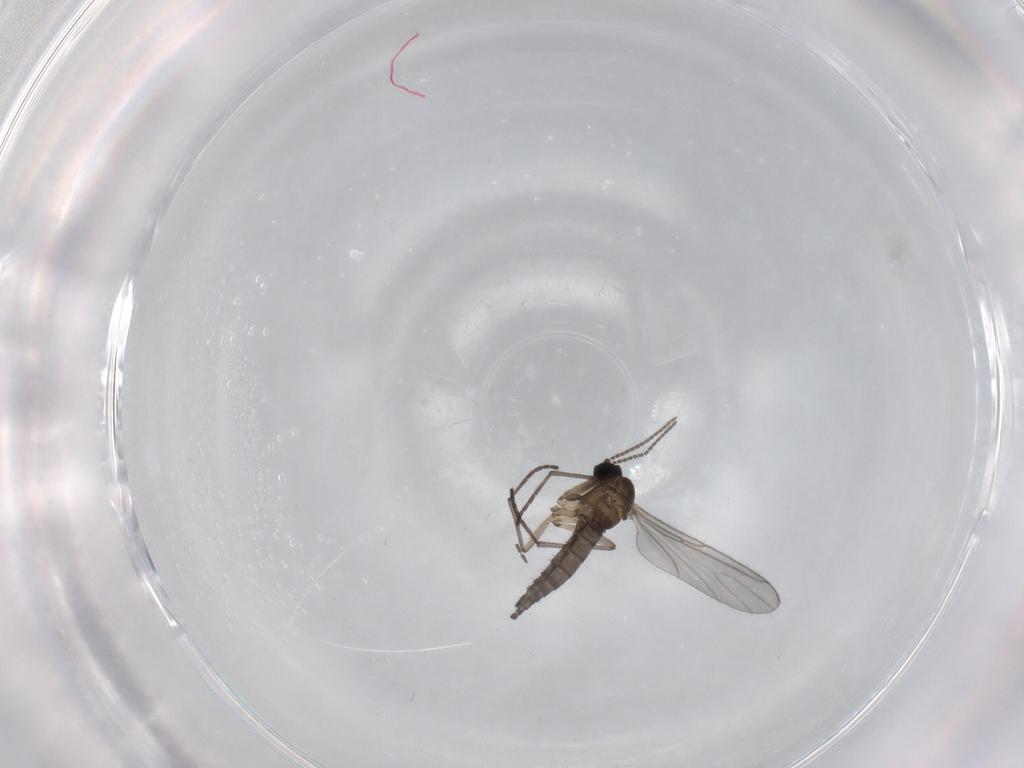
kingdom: Animalia
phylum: Arthropoda
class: Insecta
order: Diptera
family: Sciaridae
